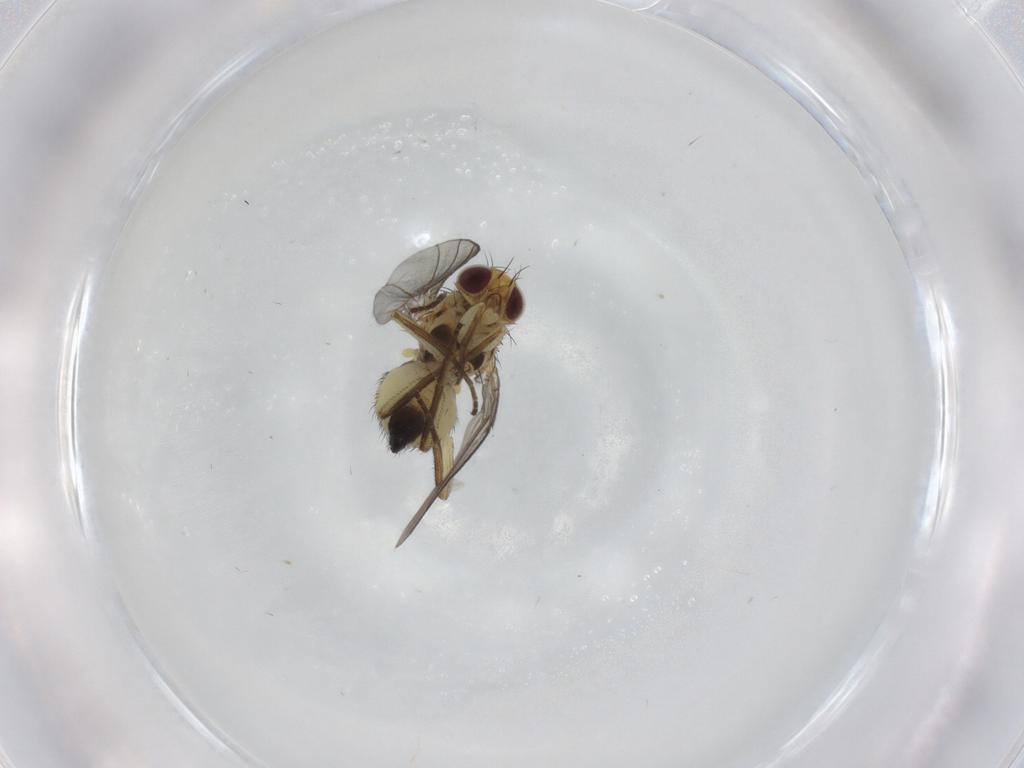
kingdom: Animalia
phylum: Arthropoda
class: Insecta
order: Diptera
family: Agromyzidae
